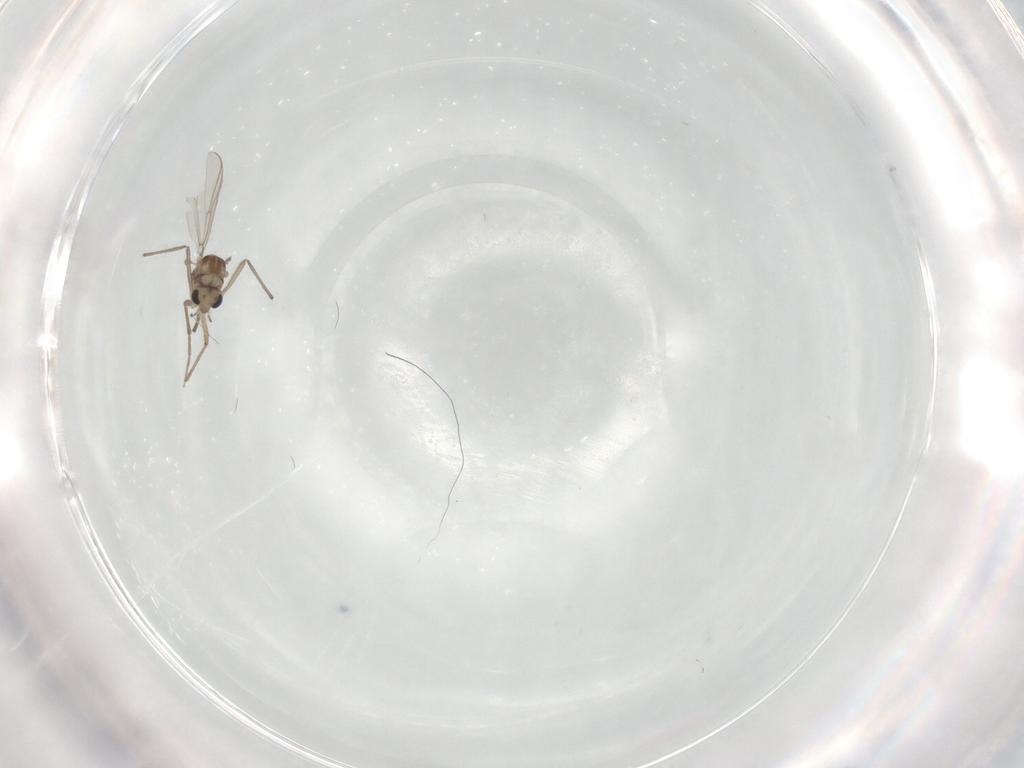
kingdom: Animalia
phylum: Arthropoda
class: Insecta
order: Diptera
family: Chironomidae
